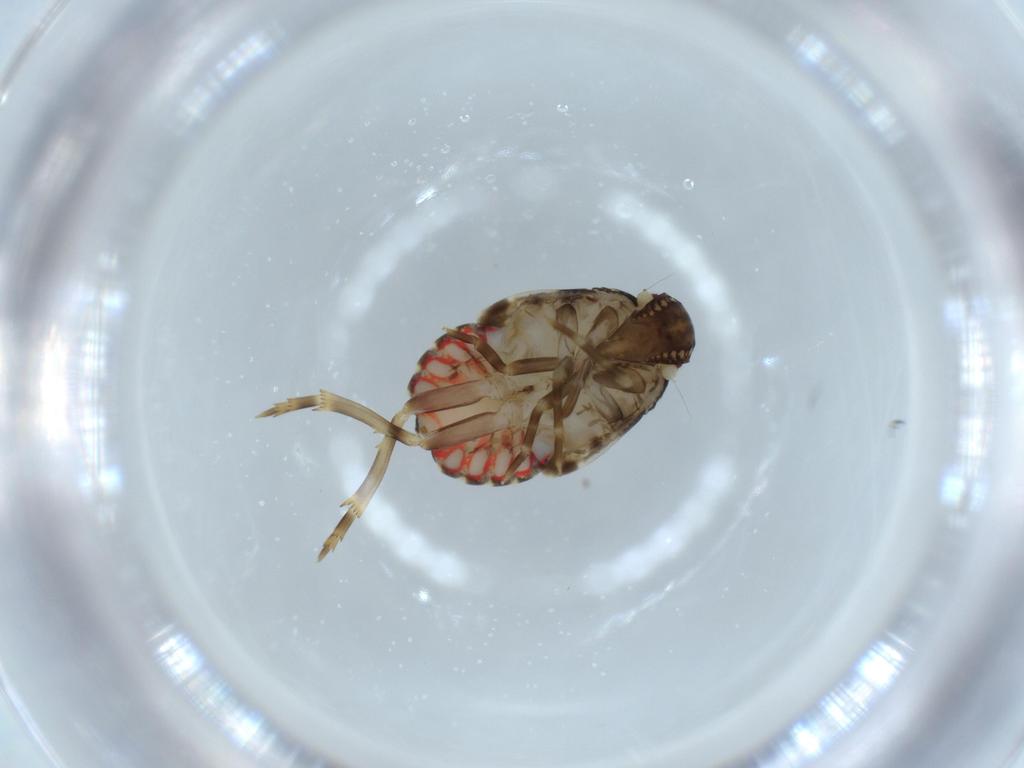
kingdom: Animalia
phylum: Arthropoda
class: Insecta
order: Hemiptera
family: Achilidae
